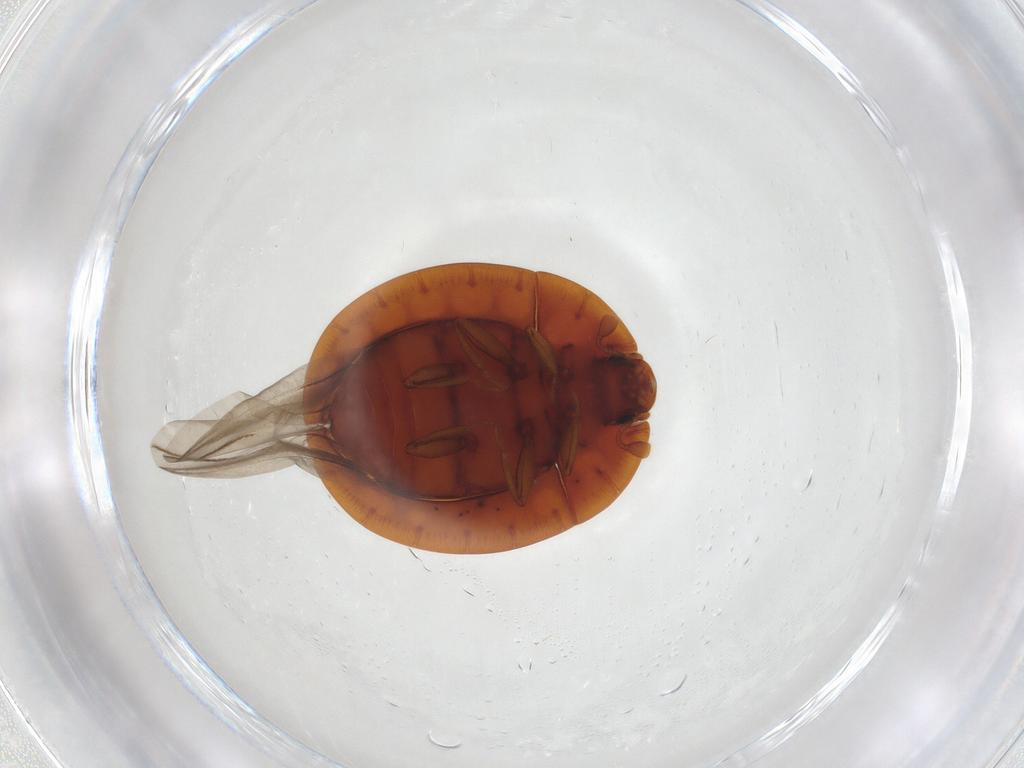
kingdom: Animalia
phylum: Arthropoda
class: Insecta
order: Coleoptera
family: Discolomatidae
